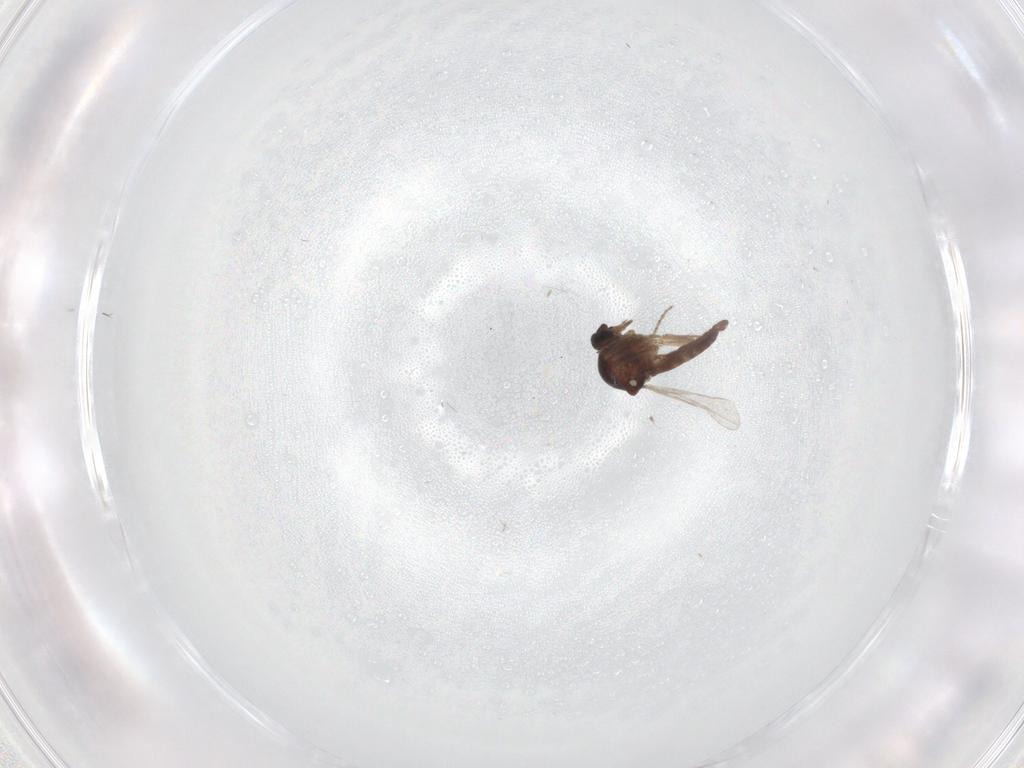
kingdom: Animalia
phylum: Arthropoda
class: Insecta
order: Diptera
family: Ceratopogonidae
